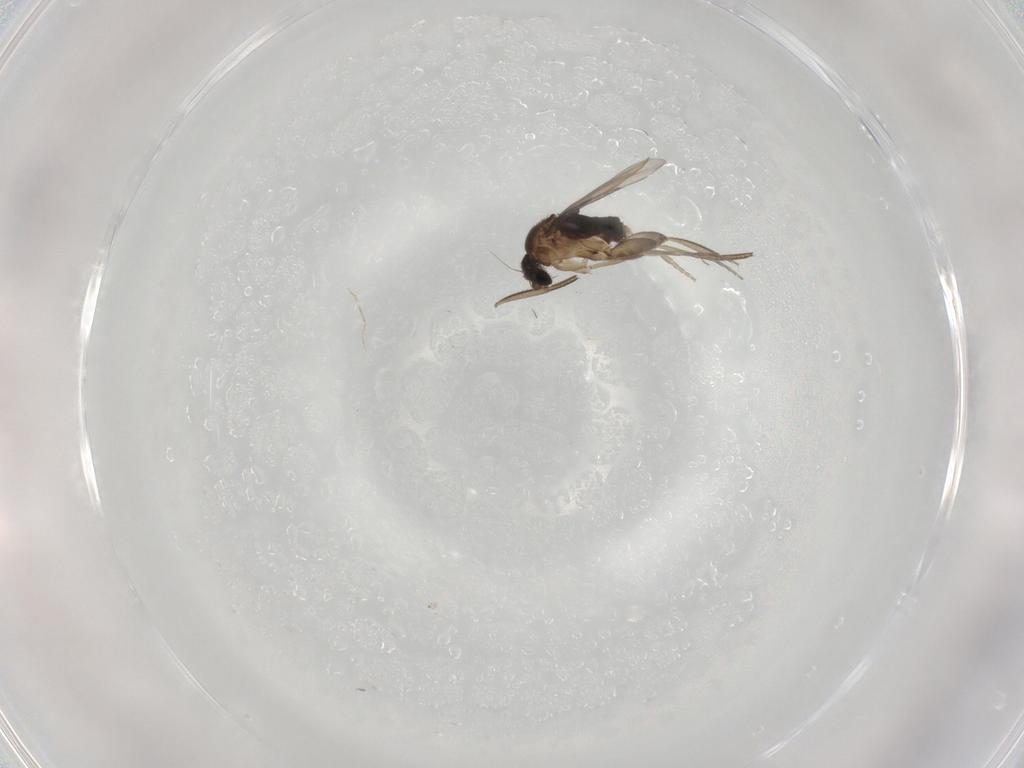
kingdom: Animalia
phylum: Arthropoda
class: Insecta
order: Diptera
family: Phoridae
